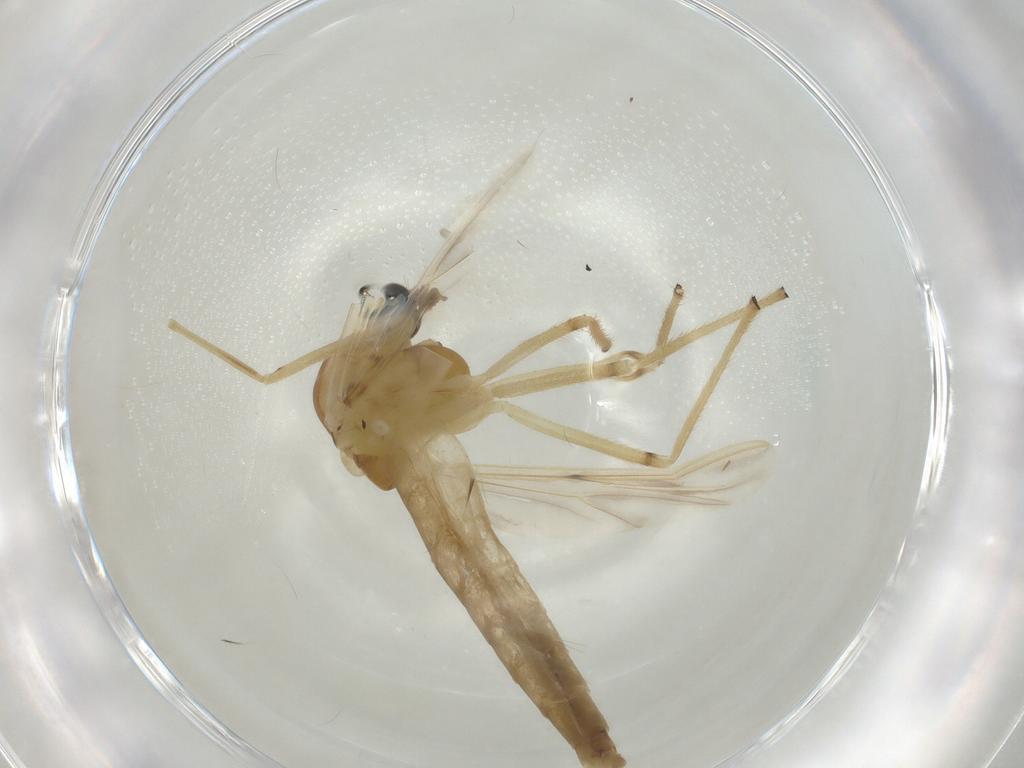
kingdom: Animalia
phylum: Arthropoda
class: Insecta
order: Diptera
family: Chironomidae
